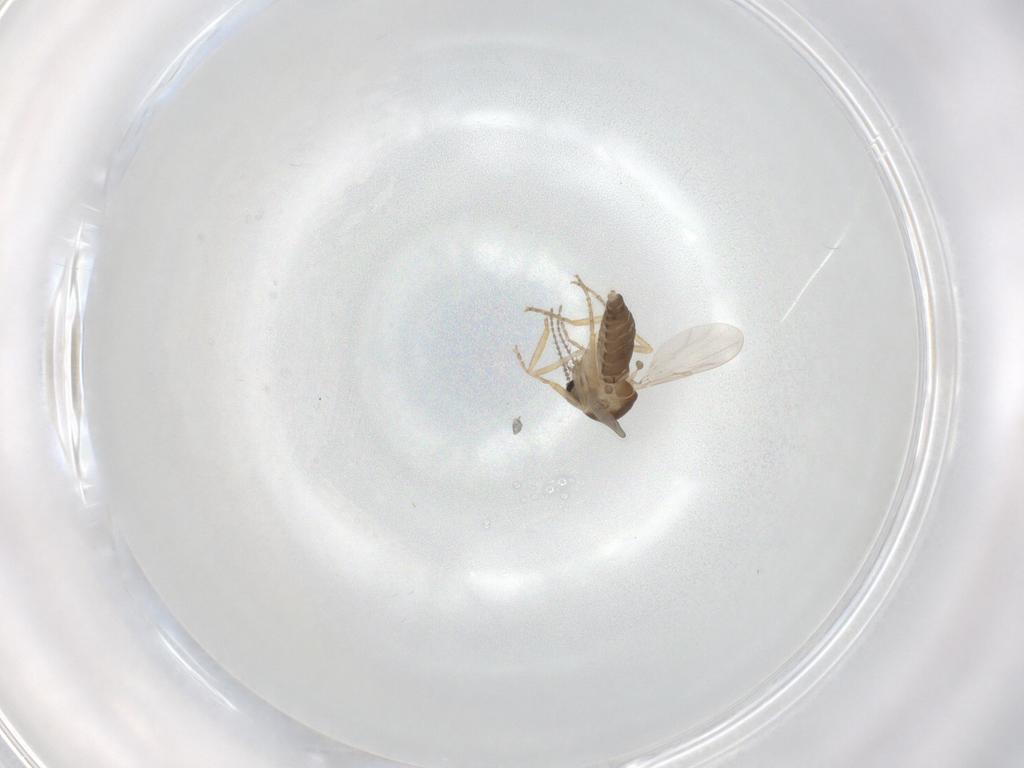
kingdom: Animalia
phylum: Arthropoda
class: Insecta
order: Diptera
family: Ceratopogonidae
